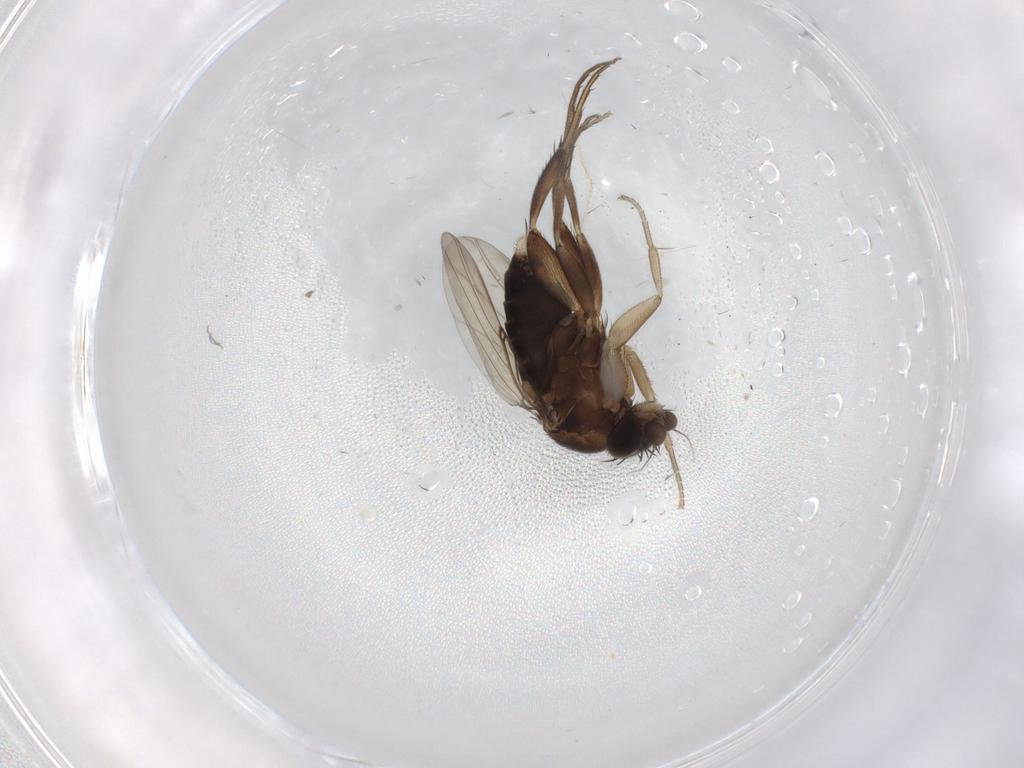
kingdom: Animalia
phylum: Arthropoda
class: Insecta
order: Diptera
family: Phoridae
